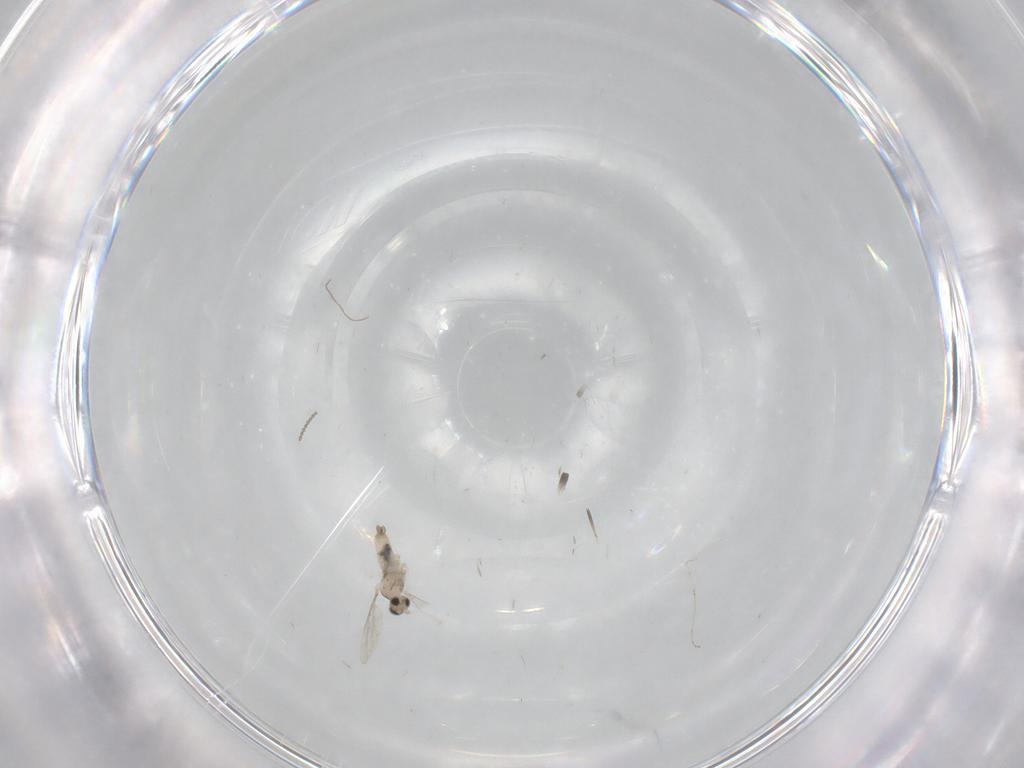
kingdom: Animalia
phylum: Arthropoda
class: Insecta
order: Diptera
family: Cecidomyiidae
